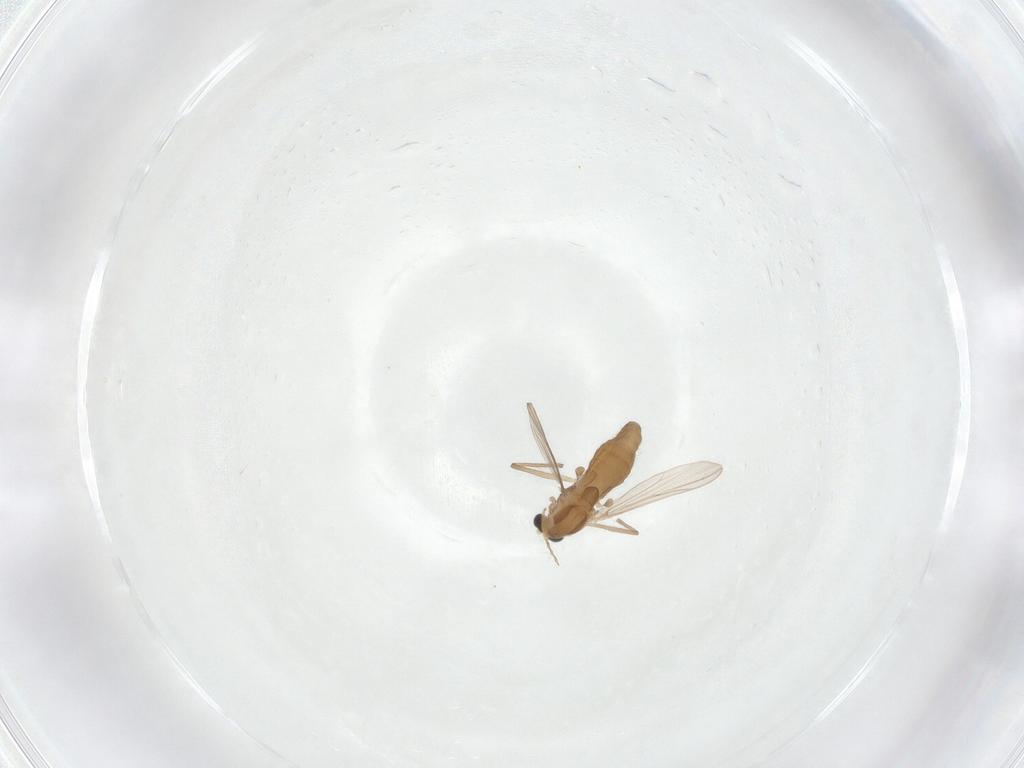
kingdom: Animalia
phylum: Arthropoda
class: Insecta
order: Diptera
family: Chironomidae
